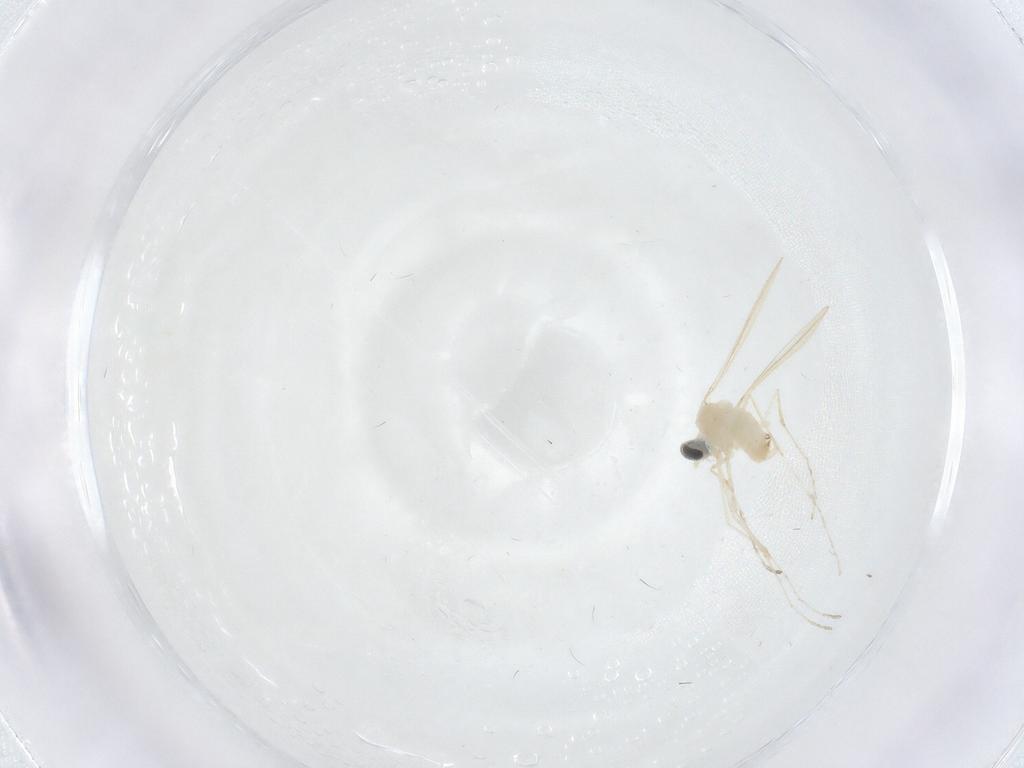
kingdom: Animalia
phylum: Arthropoda
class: Insecta
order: Diptera
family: Cecidomyiidae
